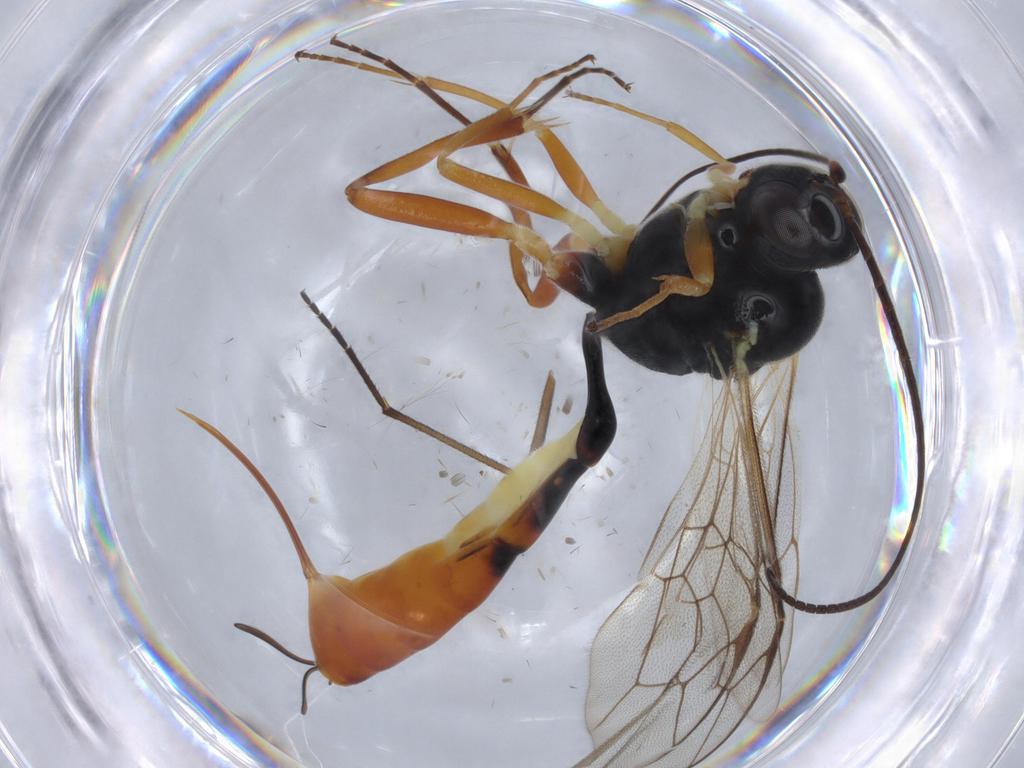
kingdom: Animalia
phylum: Arthropoda
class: Insecta
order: Hymenoptera
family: Ichneumonidae
